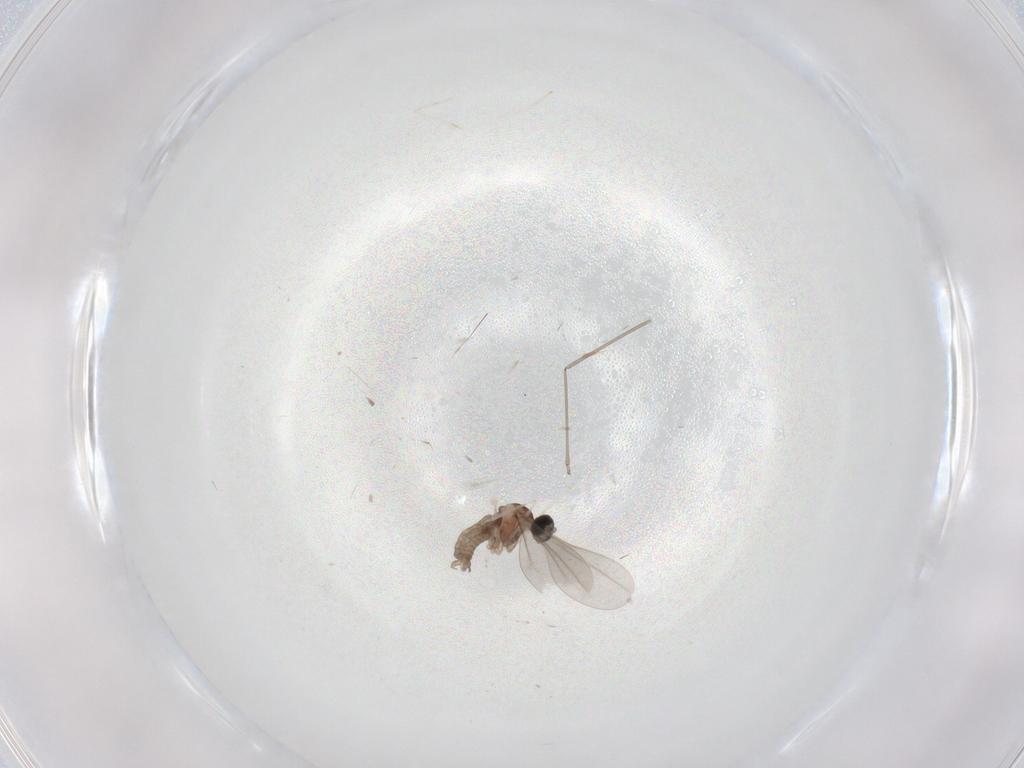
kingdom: Animalia
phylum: Arthropoda
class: Insecta
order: Diptera
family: Cecidomyiidae
